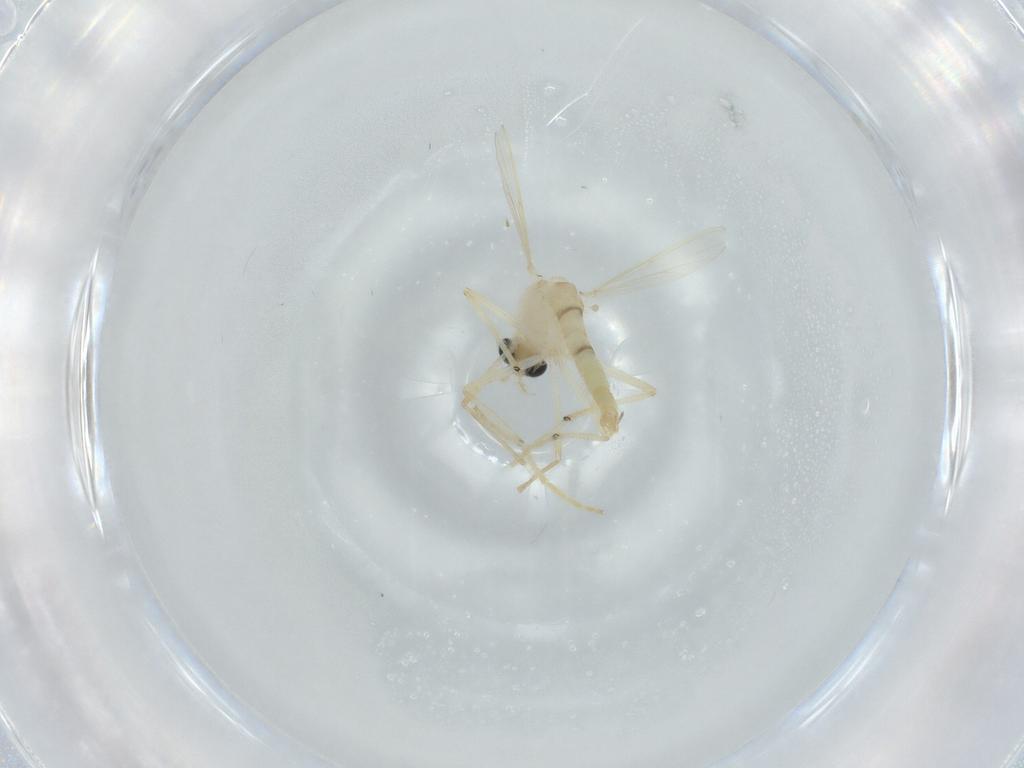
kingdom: Animalia
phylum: Arthropoda
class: Insecta
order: Diptera
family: Chironomidae
